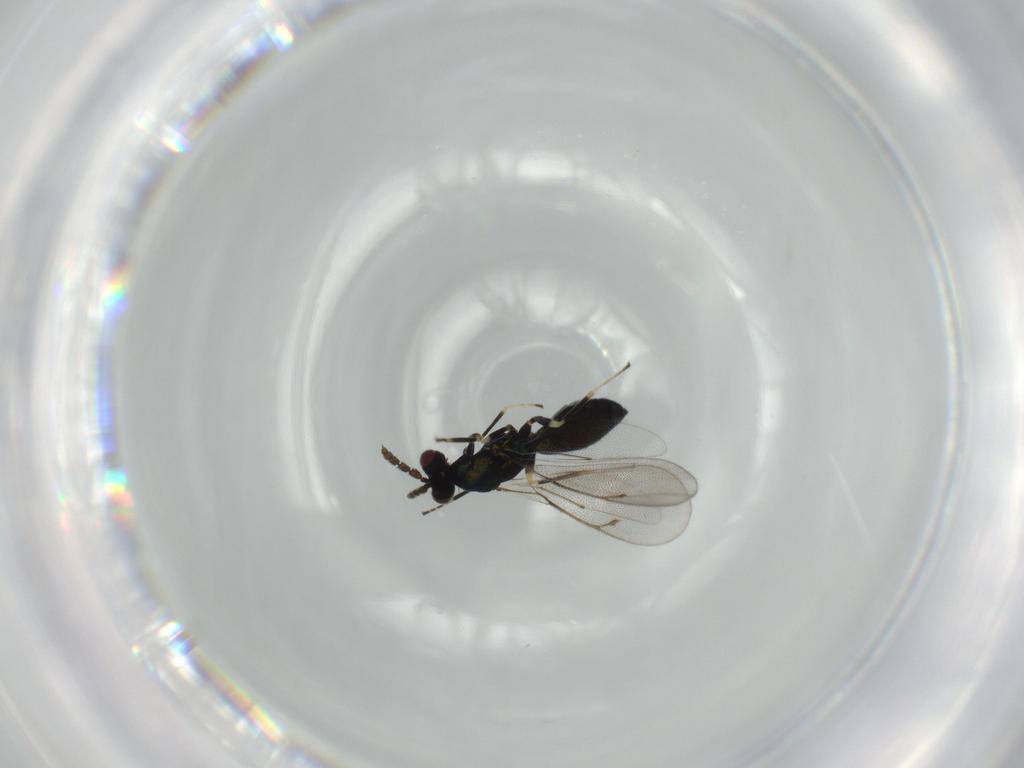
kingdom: Animalia
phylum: Arthropoda
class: Insecta
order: Hymenoptera
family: Ichneumonidae
